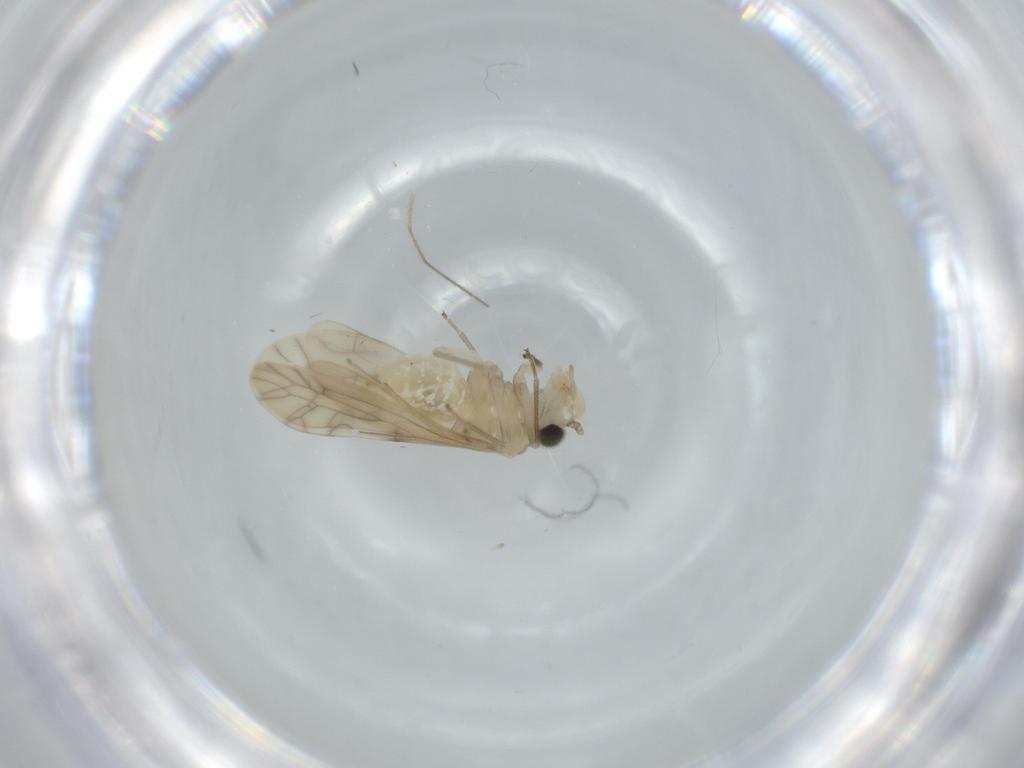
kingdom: Animalia
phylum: Arthropoda
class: Insecta
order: Psocodea
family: Caeciliusidae
